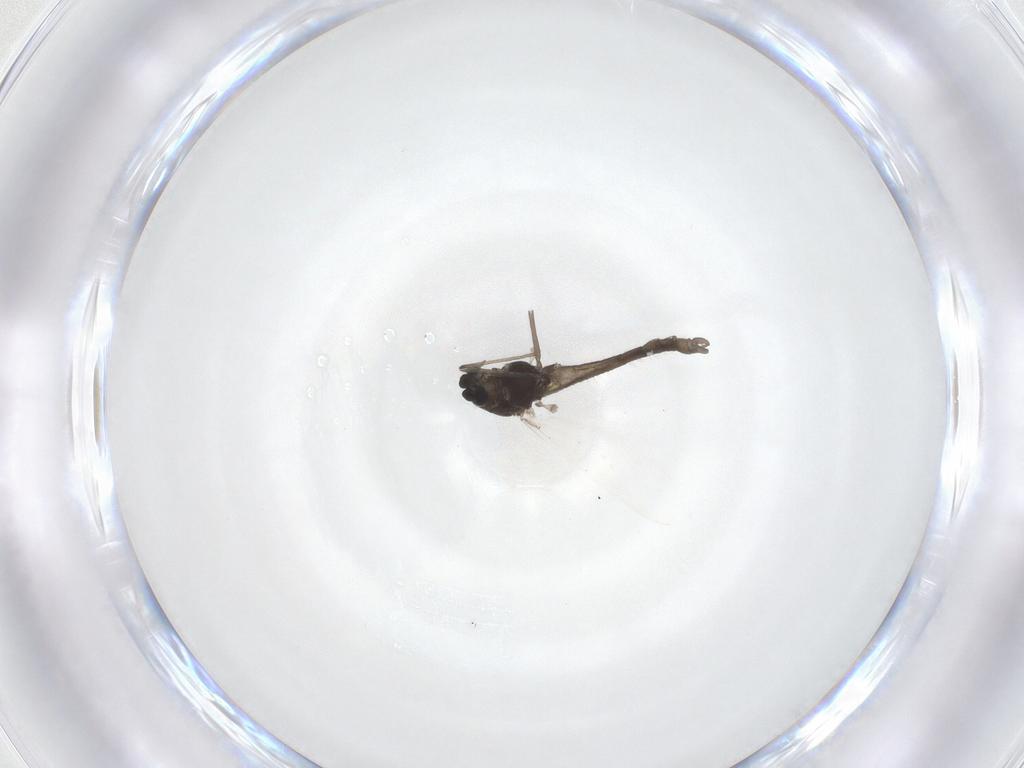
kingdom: Animalia
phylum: Arthropoda
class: Insecta
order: Diptera
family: Chironomidae
